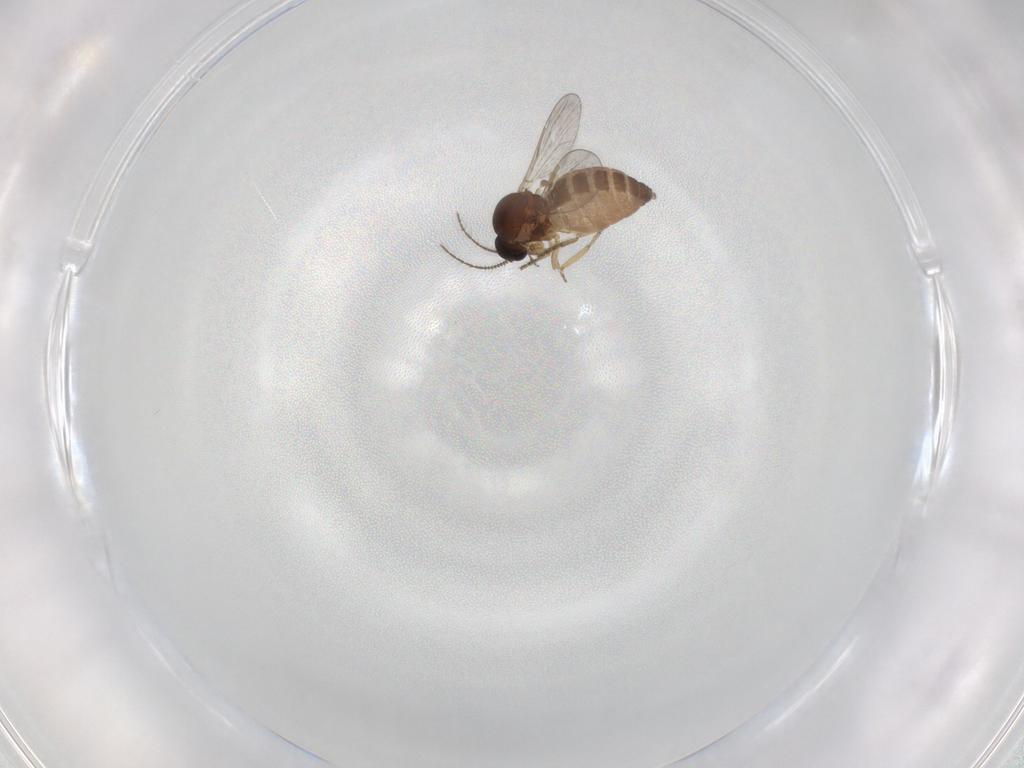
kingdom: Animalia
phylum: Arthropoda
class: Insecta
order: Diptera
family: Ceratopogonidae
